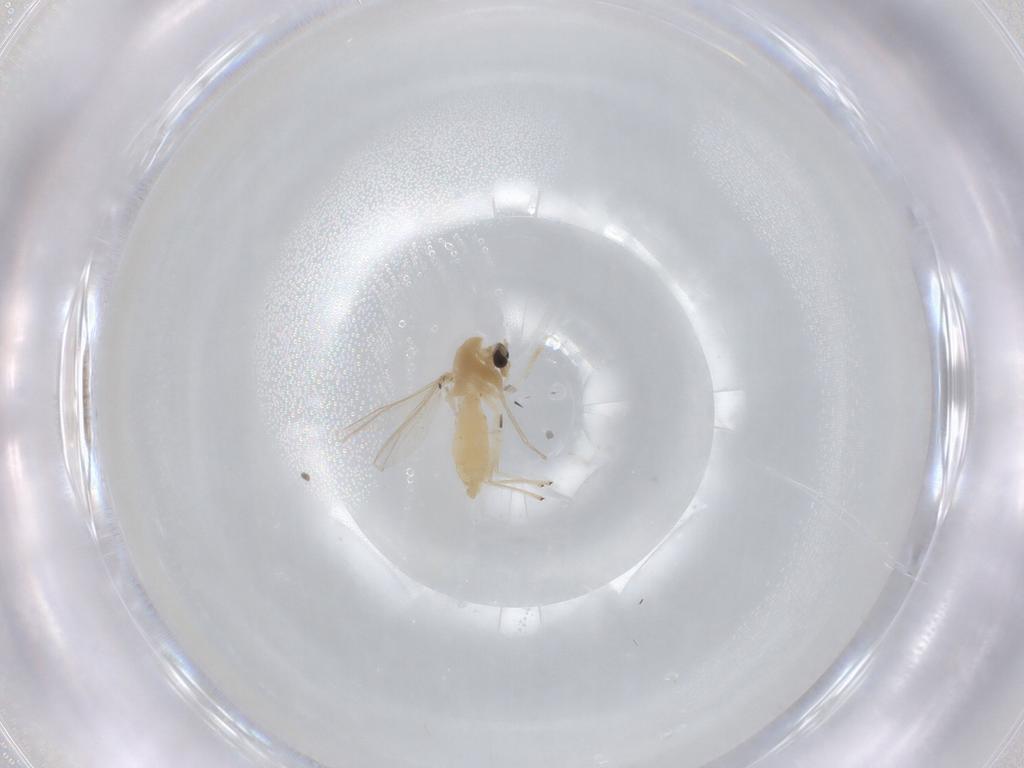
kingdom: Animalia
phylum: Arthropoda
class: Insecta
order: Diptera
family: Chironomidae
